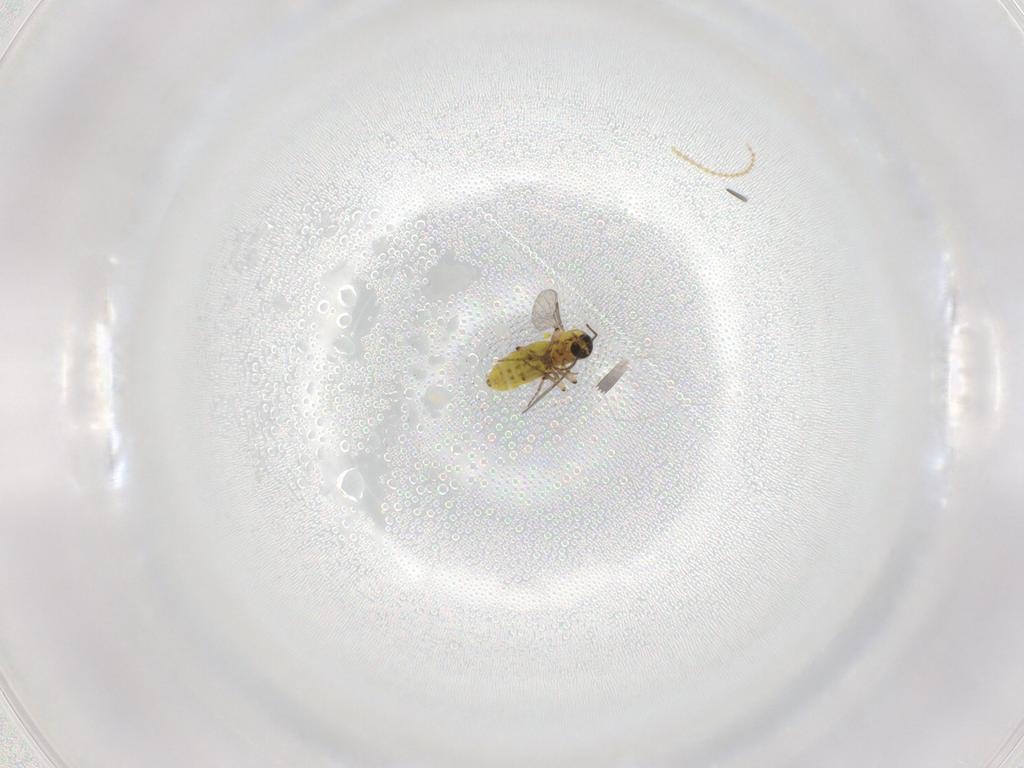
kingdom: Animalia
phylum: Arthropoda
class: Insecta
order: Diptera
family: Ceratopogonidae
